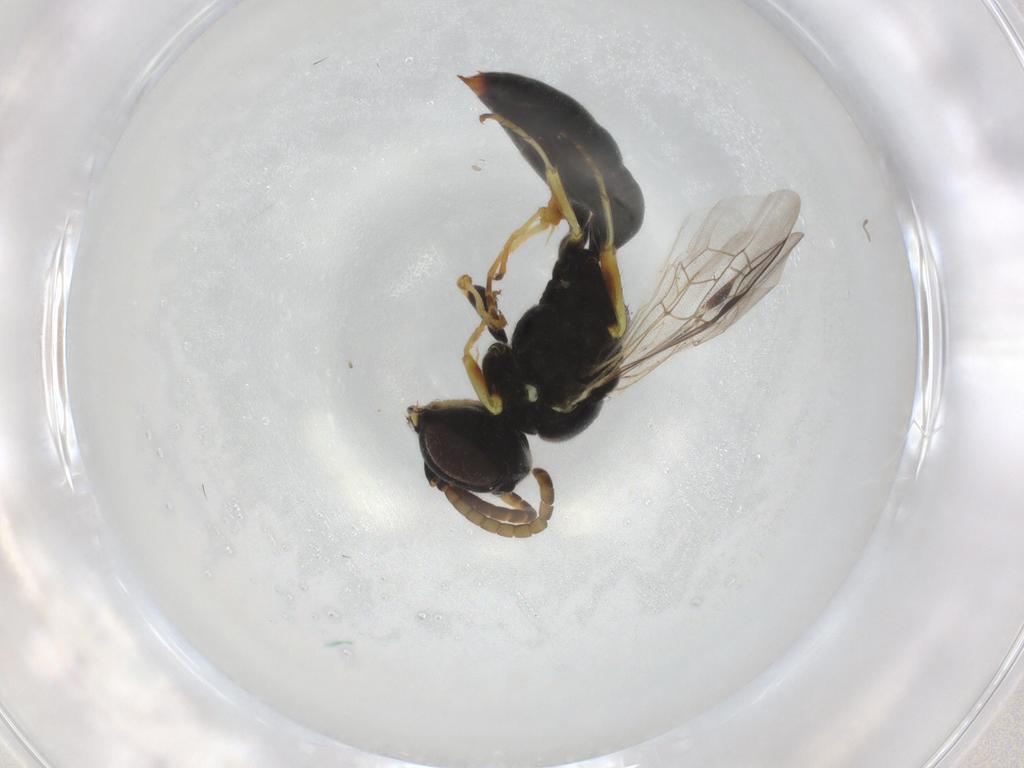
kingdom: Animalia
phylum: Arthropoda
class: Insecta
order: Hymenoptera
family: Crabronidae
